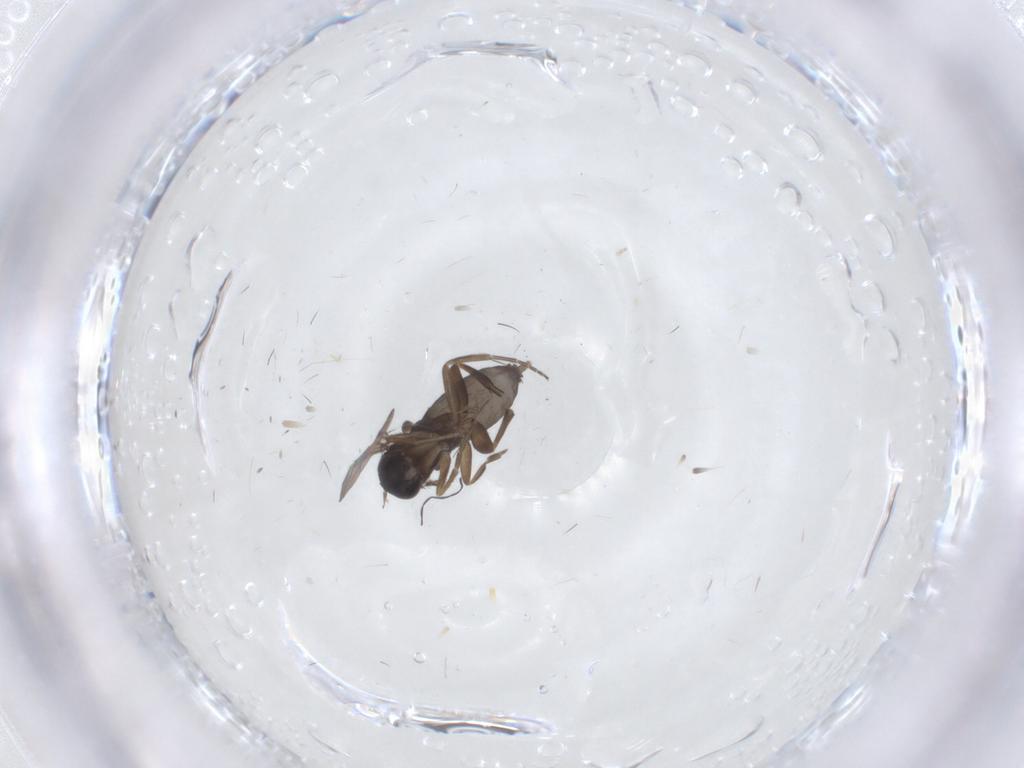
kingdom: Animalia
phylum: Arthropoda
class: Insecta
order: Diptera
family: Phoridae
